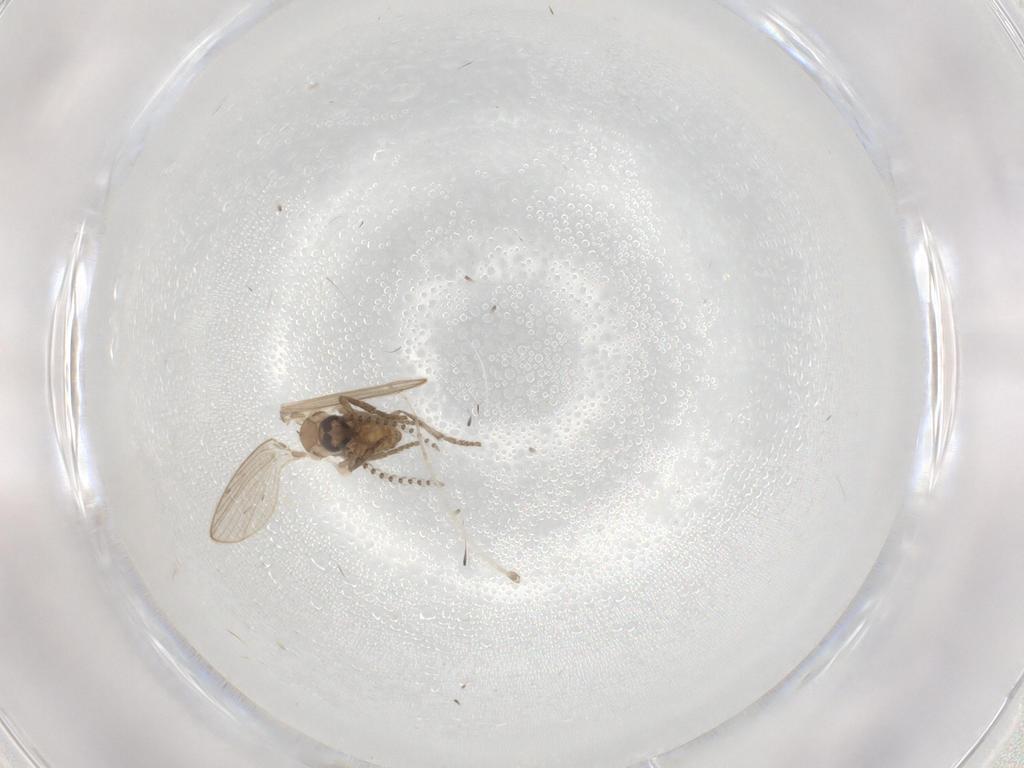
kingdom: Animalia
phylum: Arthropoda
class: Insecta
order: Diptera
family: Psychodidae
